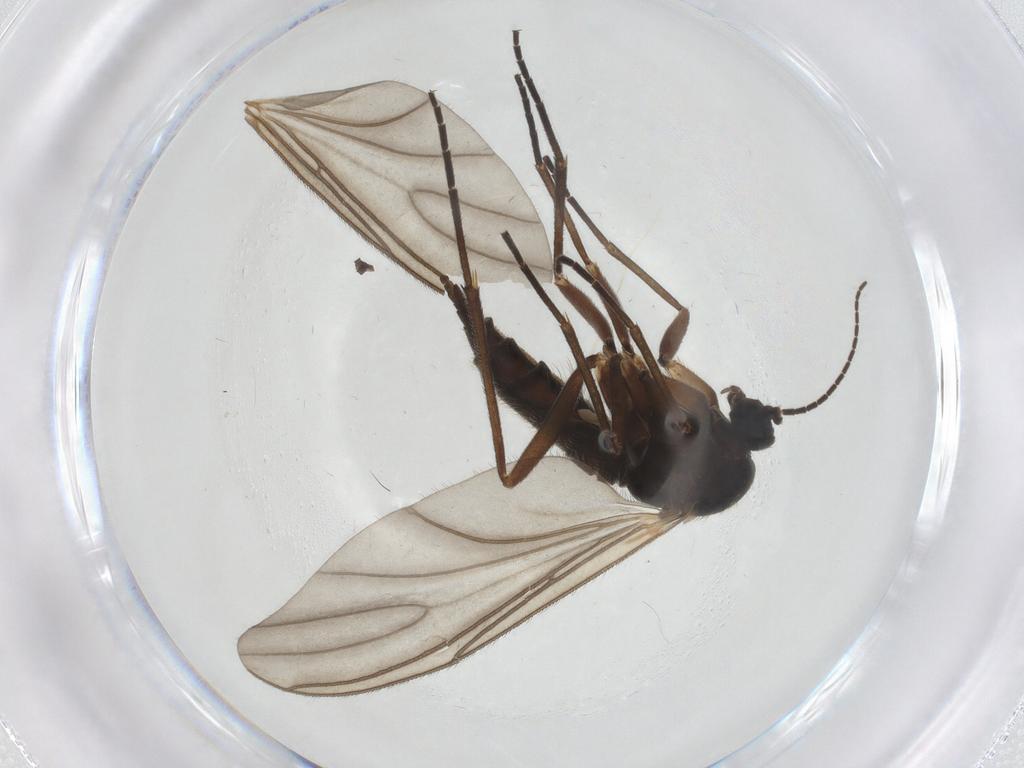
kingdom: Animalia
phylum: Arthropoda
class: Insecta
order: Diptera
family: Sciaridae
